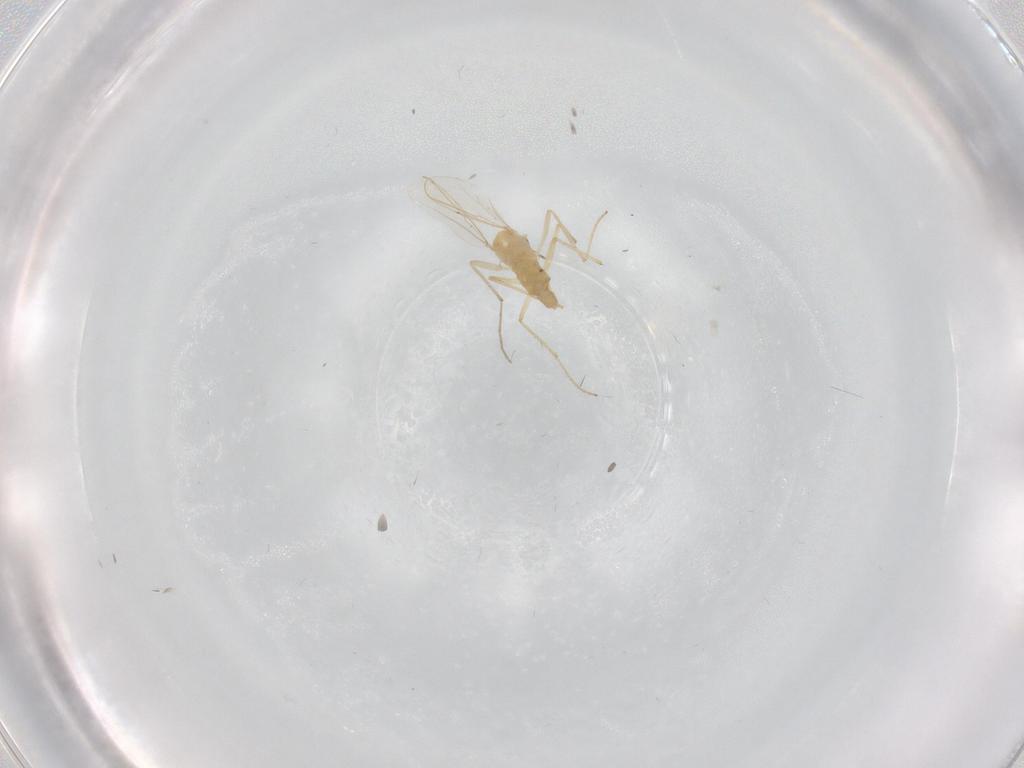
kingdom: Animalia
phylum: Arthropoda
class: Insecta
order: Diptera
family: Chironomidae
